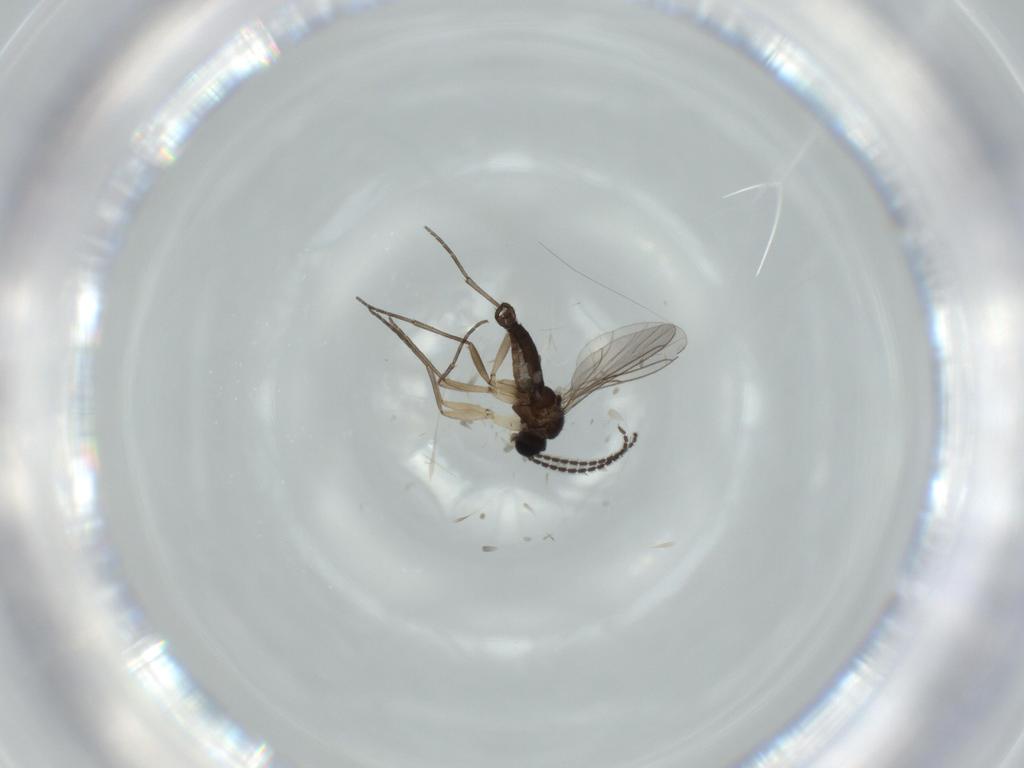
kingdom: Animalia
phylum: Arthropoda
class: Insecta
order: Diptera
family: Sciaridae
